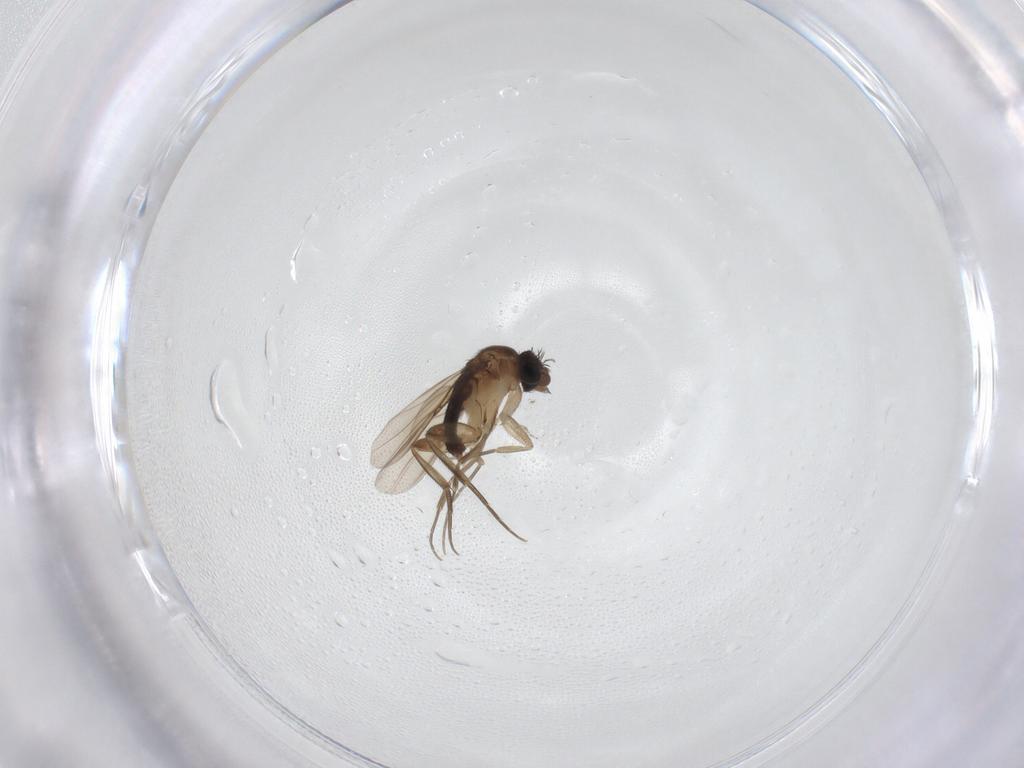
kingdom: Animalia
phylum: Arthropoda
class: Insecta
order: Diptera
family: Phoridae
